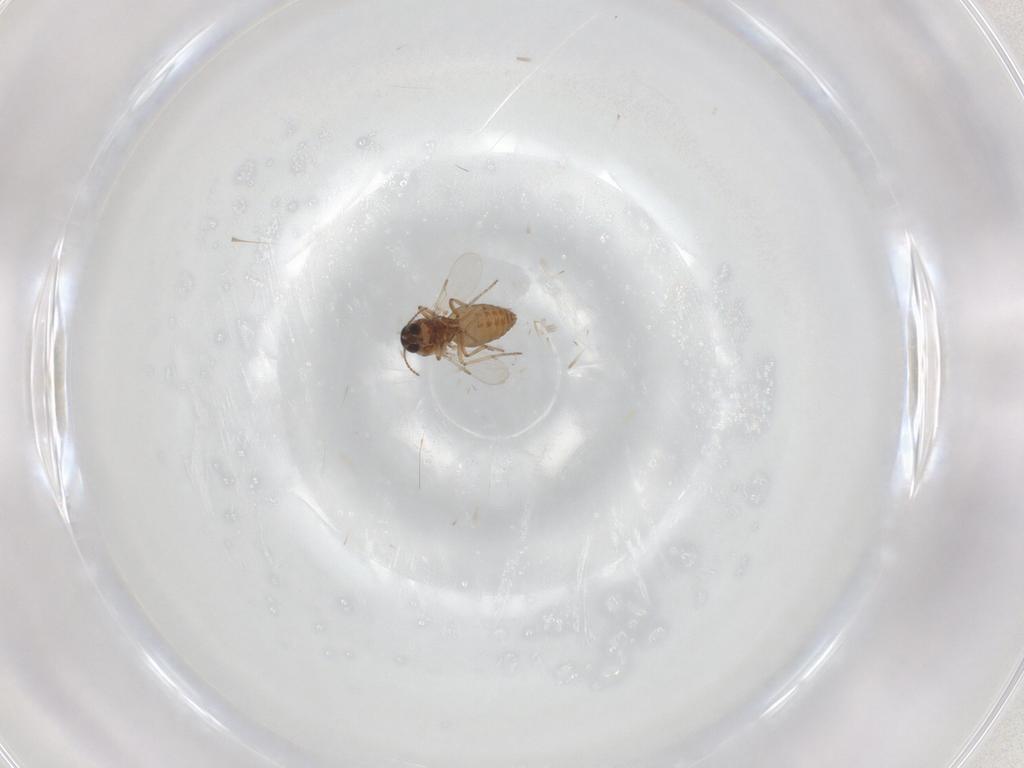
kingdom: Animalia
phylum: Arthropoda
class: Insecta
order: Diptera
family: Ceratopogonidae
